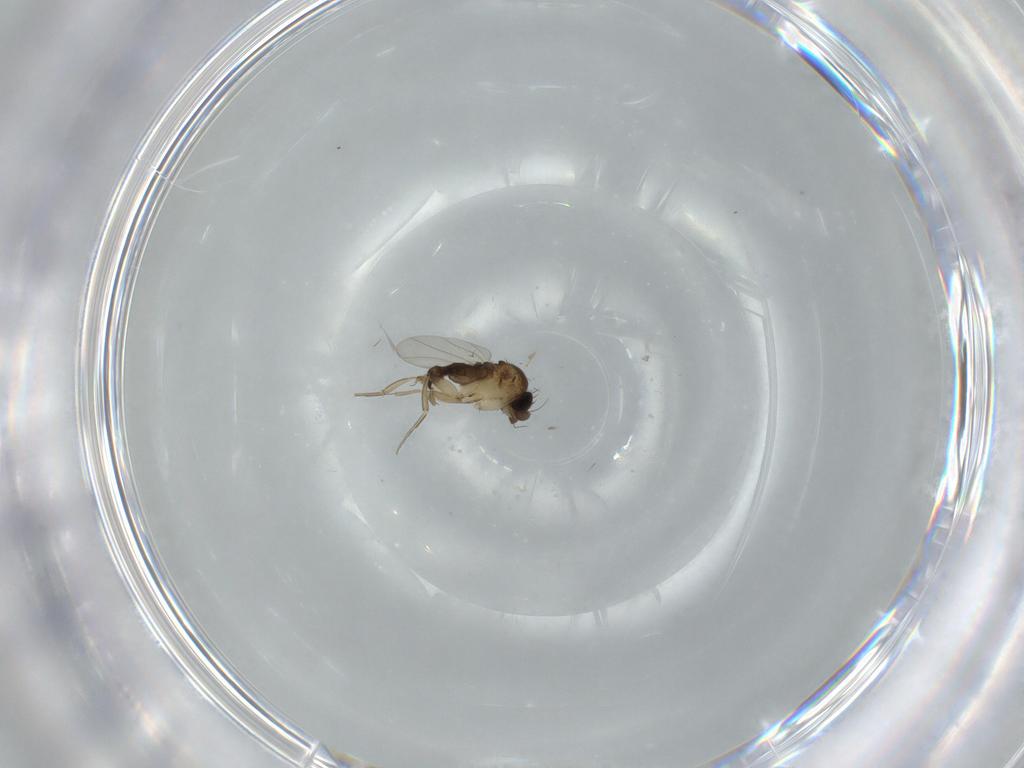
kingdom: Animalia
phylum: Arthropoda
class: Insecta
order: Diptera
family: Phoridae
